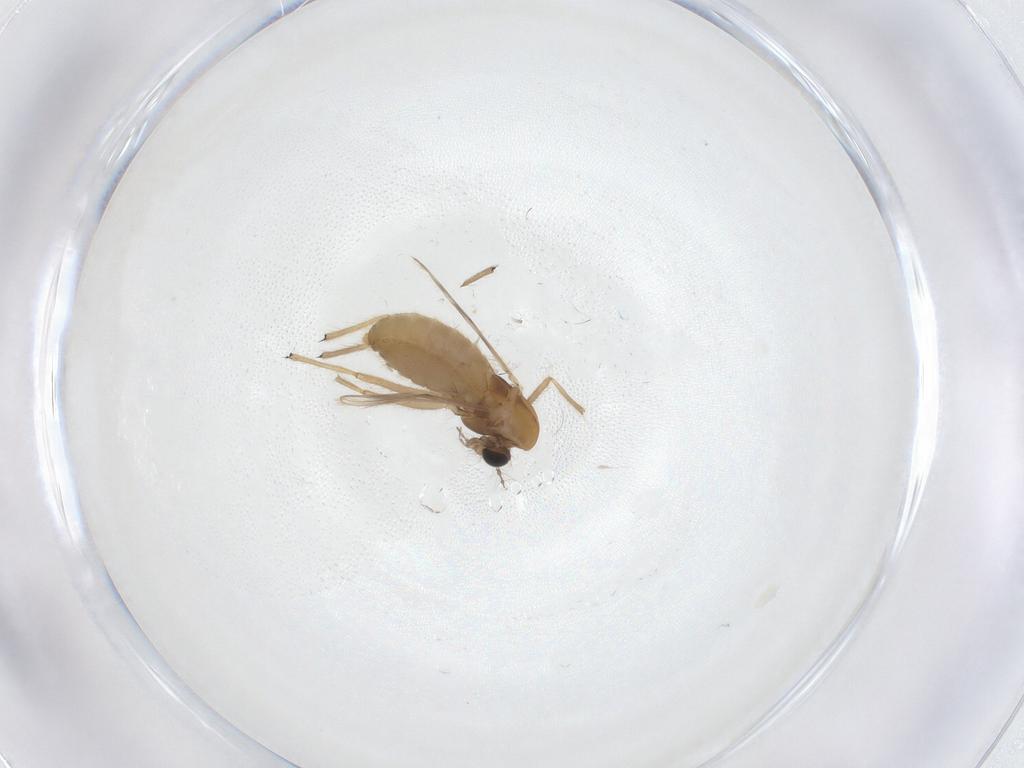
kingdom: Animalia
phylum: Arthropoda
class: Insecta
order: Diptera
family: Chironomidae
